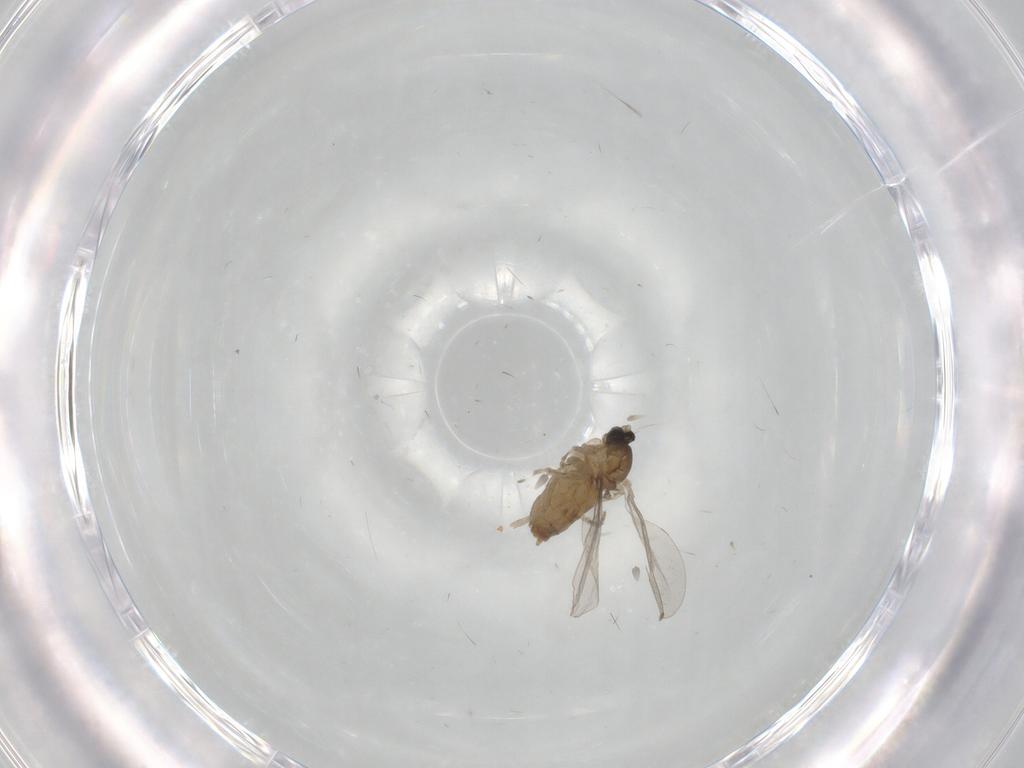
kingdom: Animalia
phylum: Arthropoda
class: Insecta
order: Diptera
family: Cecidomyiidae
